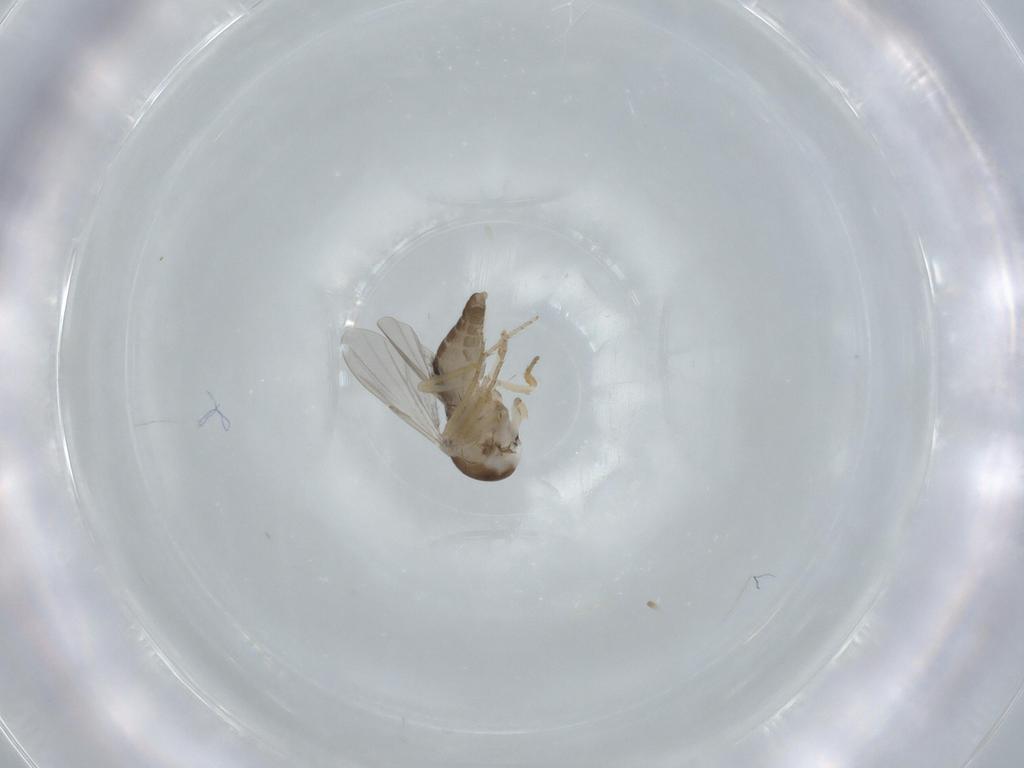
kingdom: Animalia
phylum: Arthropoda
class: Insecta
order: Diptera
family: Ceratopogonidae
